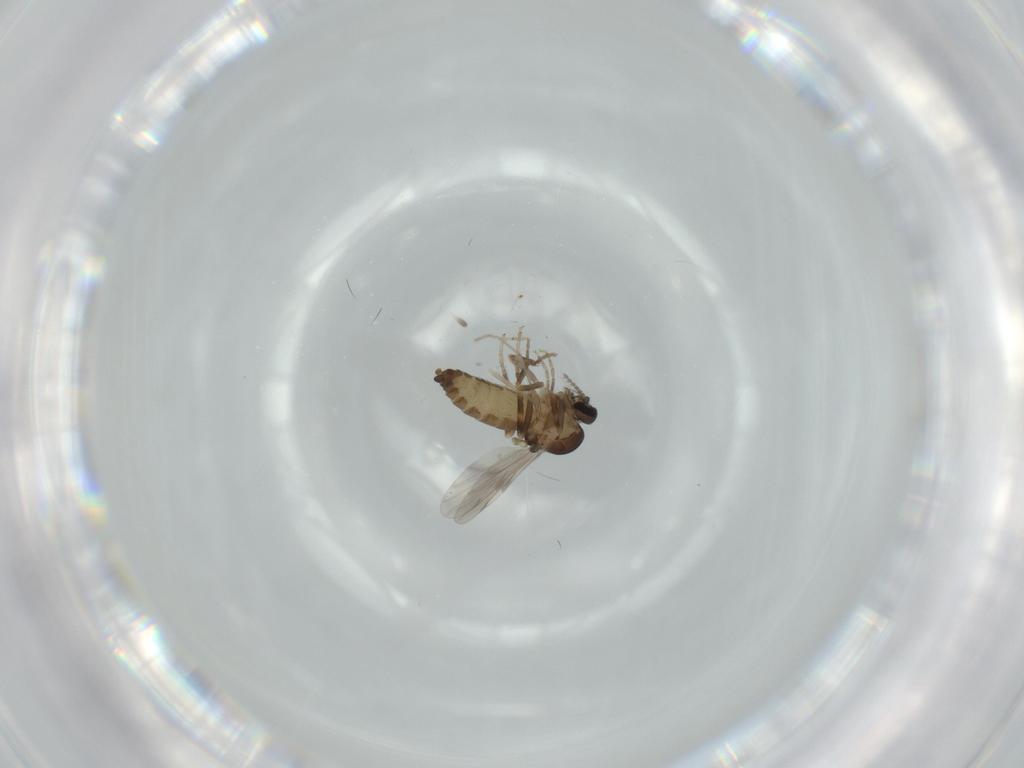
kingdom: Animalia
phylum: Arthropoda
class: Insecta
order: Diptera
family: Ceratopogonidae
